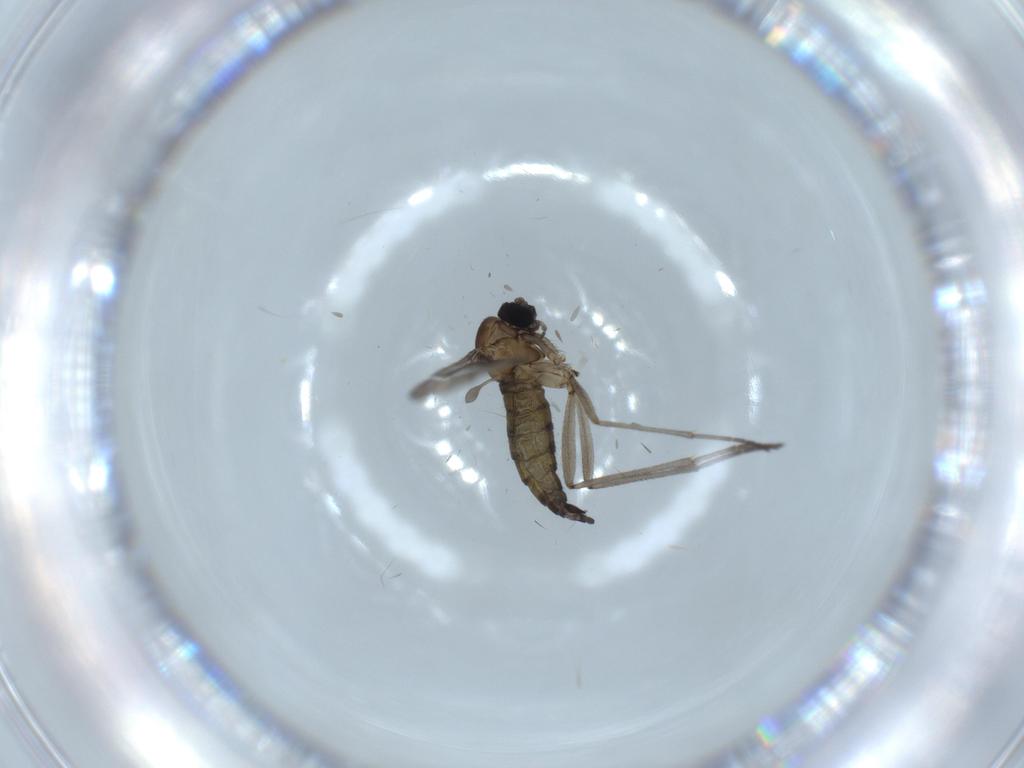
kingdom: Animalia
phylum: Arthropoda
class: Insecta
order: Diptera
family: Sciaridae
